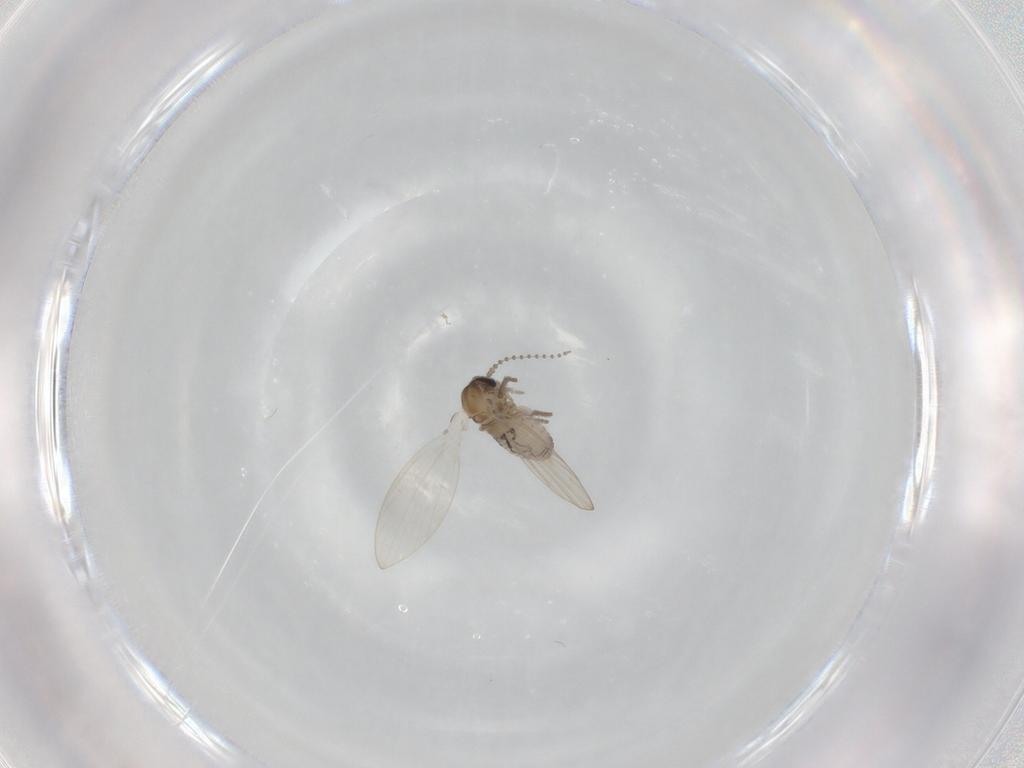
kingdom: Animalia
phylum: Arthropoda
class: Insecta
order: Diptera
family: Psychodidae
